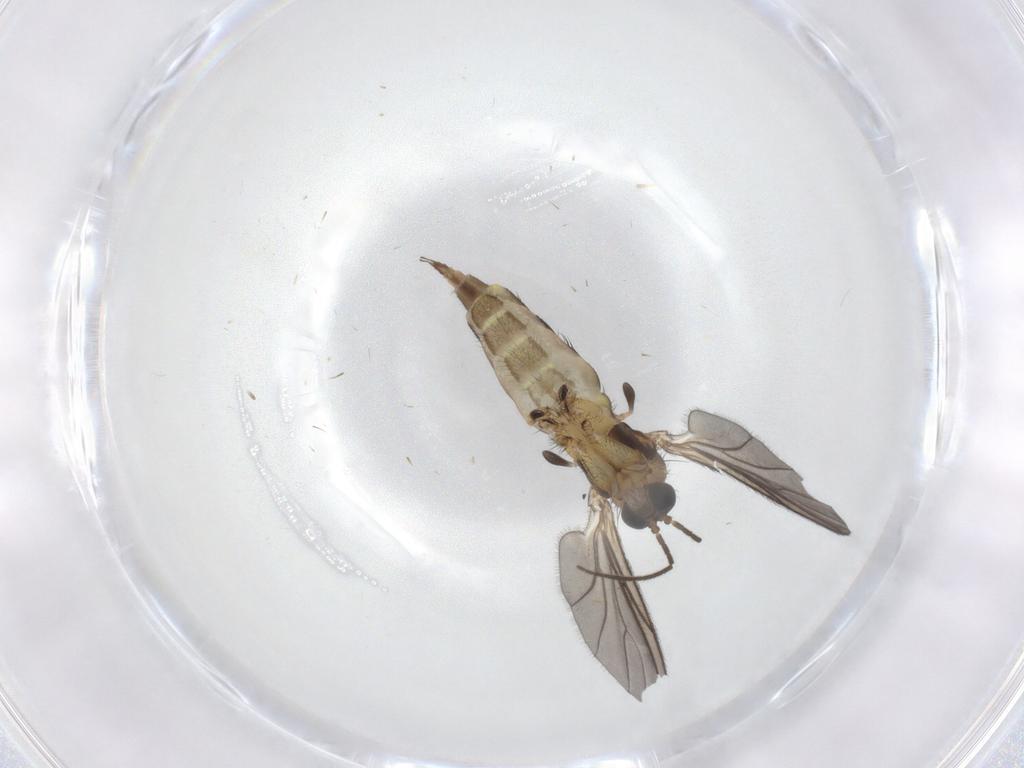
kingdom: Animalia
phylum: Arthropoda
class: Insecta
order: Diptera
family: Sciaridae
